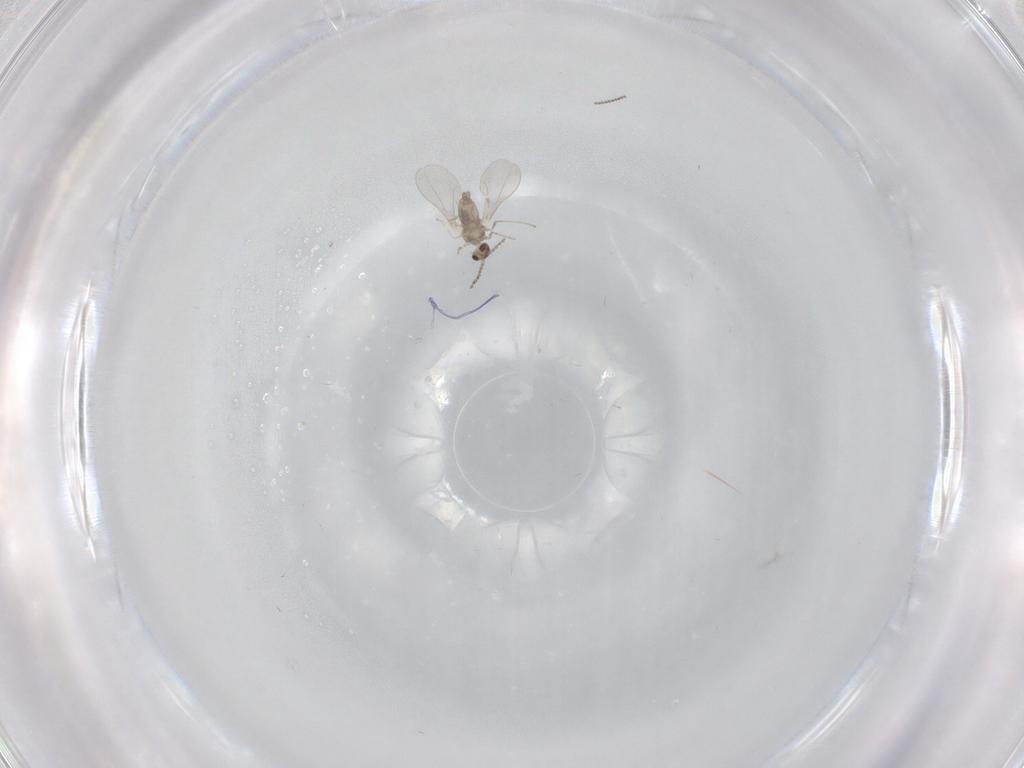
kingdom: Animalia
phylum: Arthropoda
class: Insecta
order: Diptera
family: Cecidomyiidae
